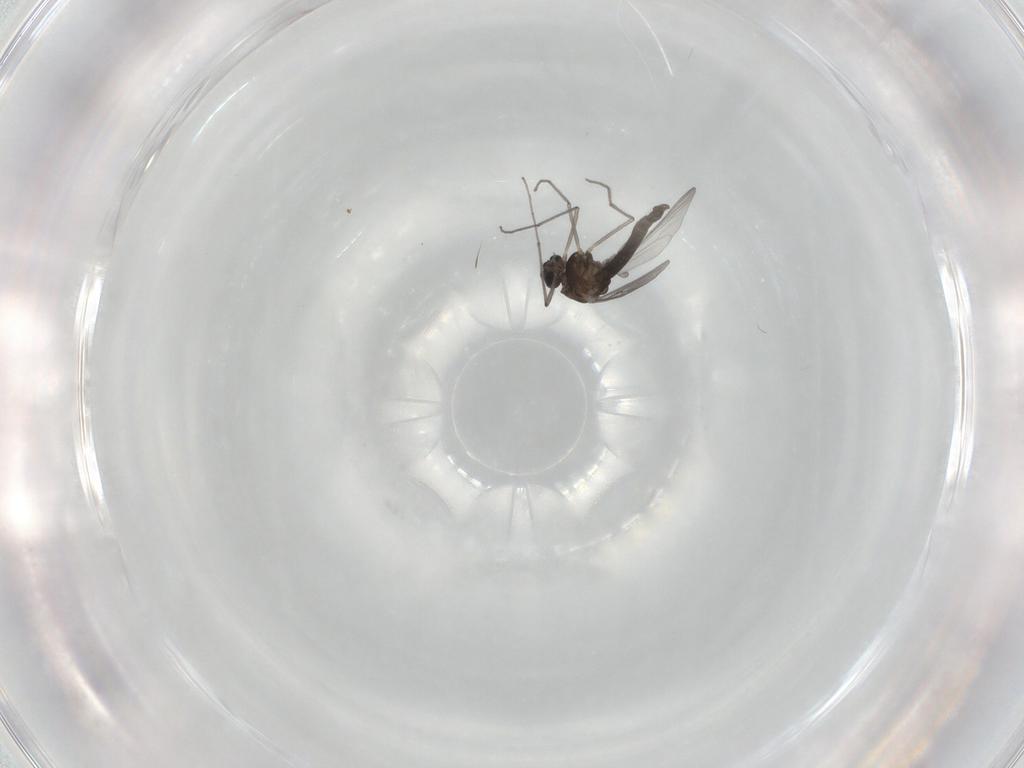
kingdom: Animalia
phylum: Arthropoda
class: Insecta
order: Diptera
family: Chironomidae
